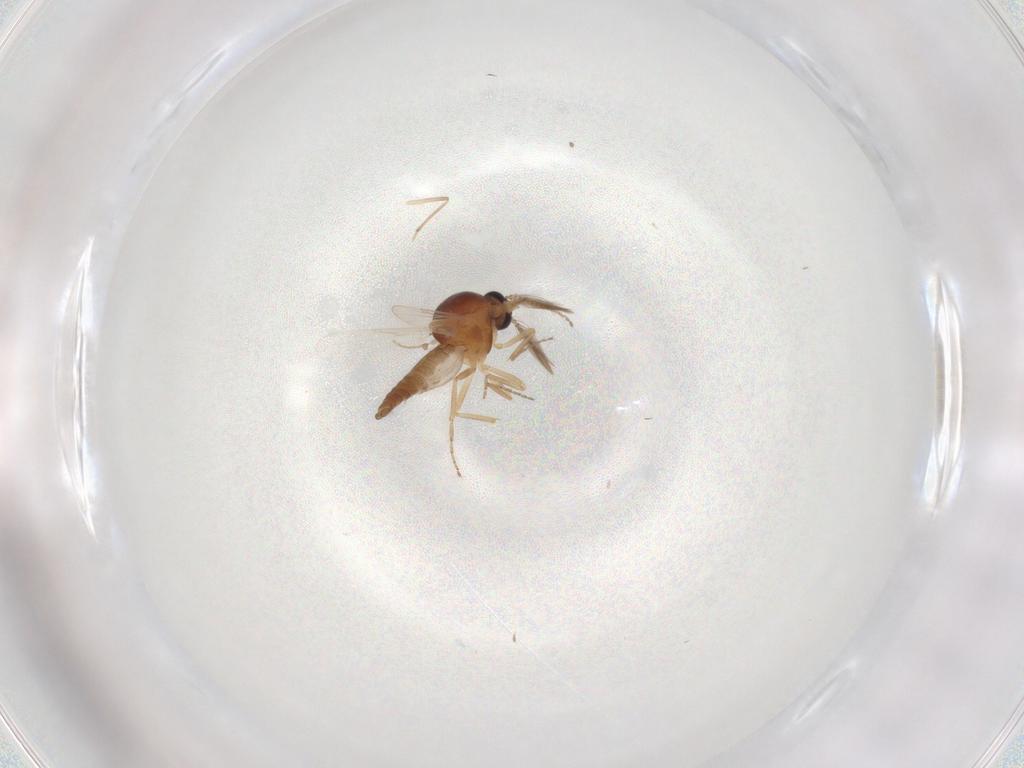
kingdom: Animalia
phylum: Arthropoda
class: Insecta
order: Diptera
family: Ceratopogonidae
